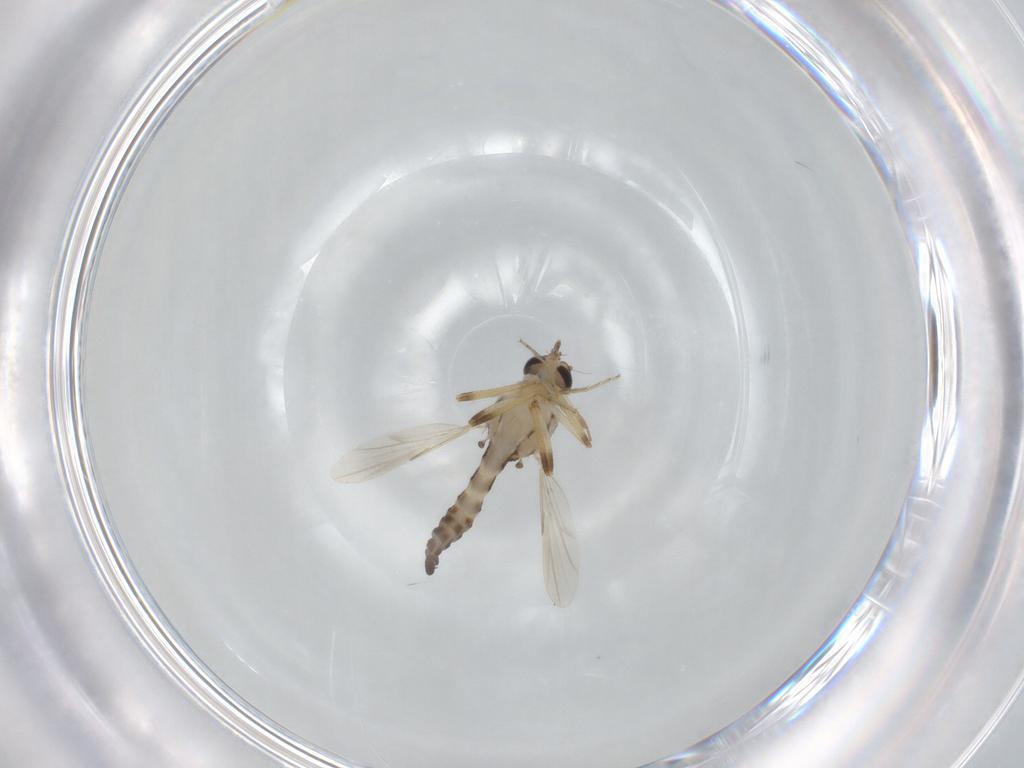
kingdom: Animalia
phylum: Arthropoda
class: Insecta
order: Diptera
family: Ceratopogonidae
